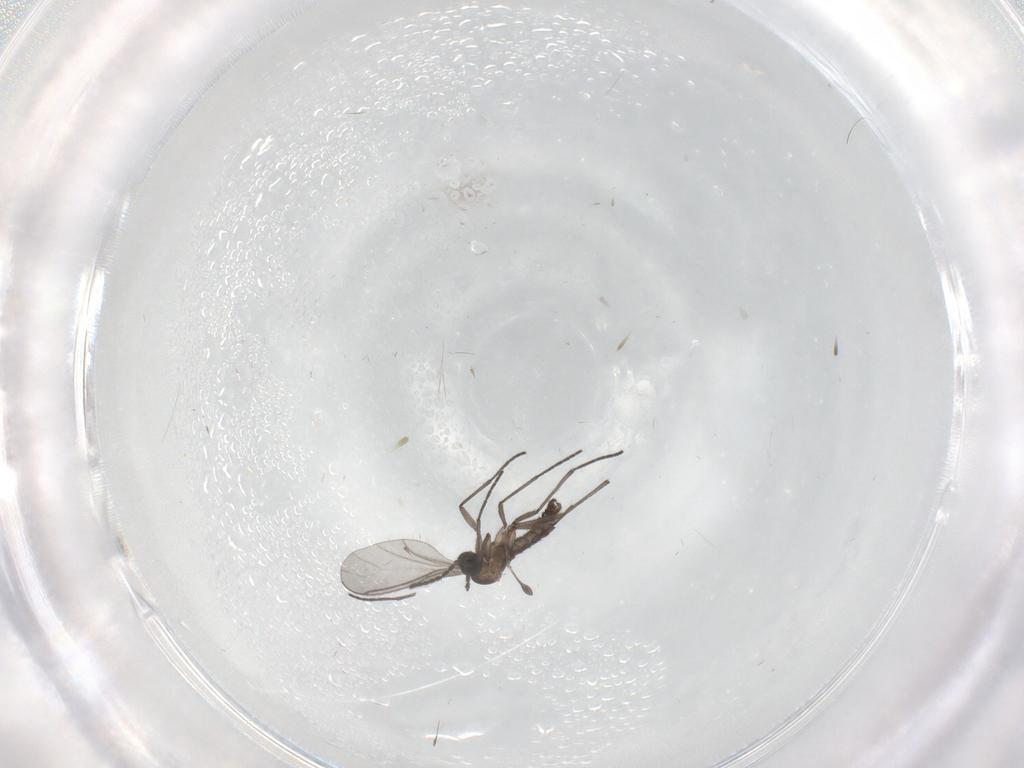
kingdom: Animalia
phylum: Arthropoda
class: Insecta
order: Diptera
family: Sciaridae
